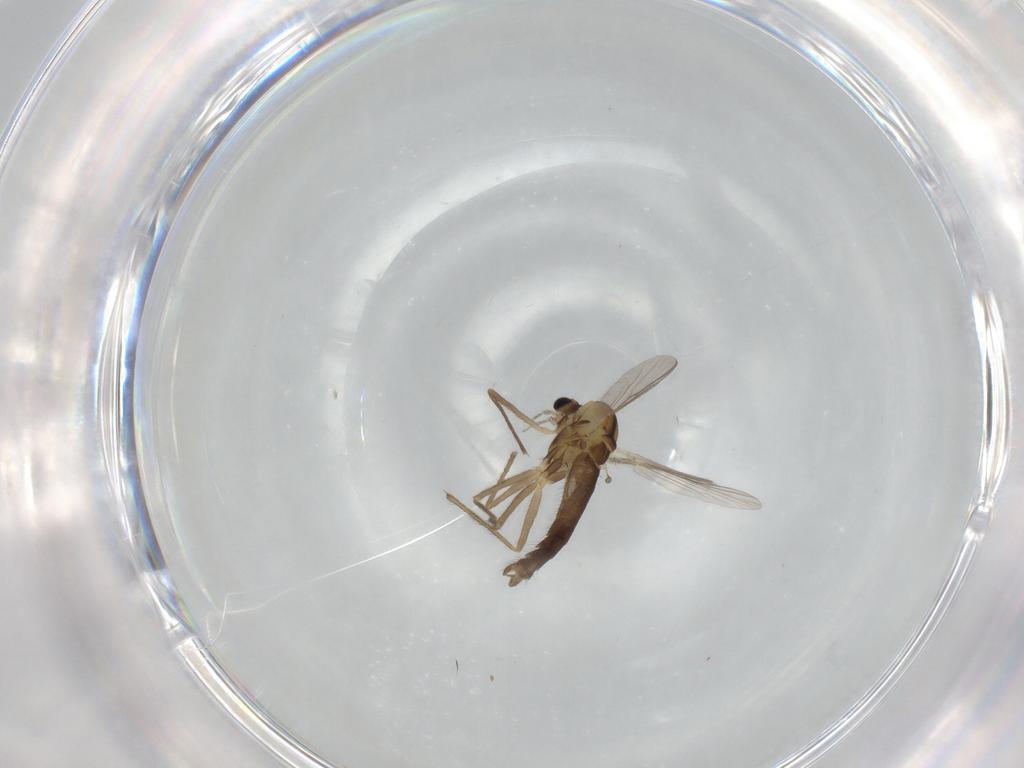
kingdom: Animalia
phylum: Arthropoda
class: Insecta
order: Diptera
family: Chironomidae
